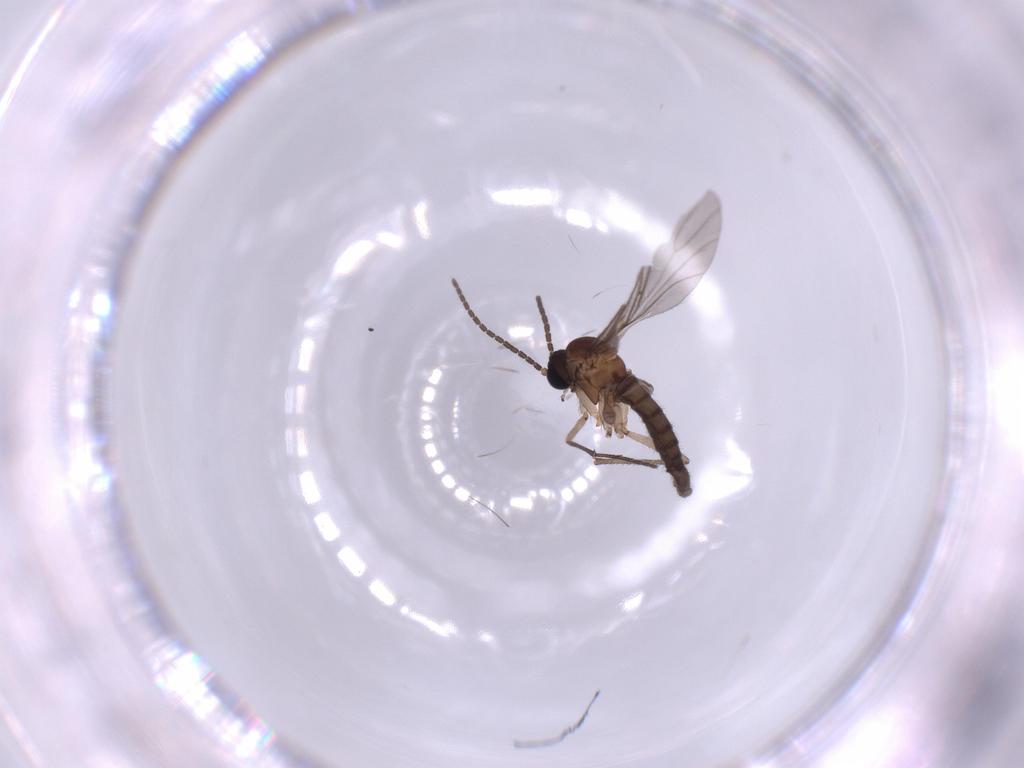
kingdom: Animalia
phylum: Arthropoda
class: Insecta
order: Diptera
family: Sciaridae
